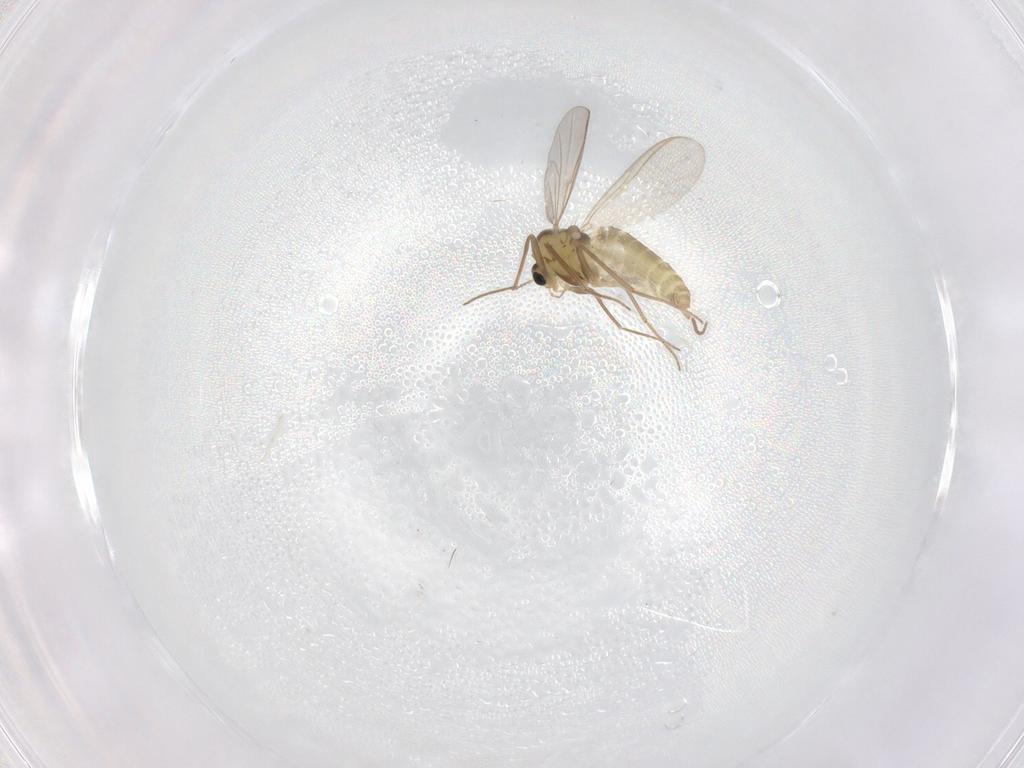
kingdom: Animalia
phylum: Arthropoda
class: Insecta
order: Diptera
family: Chironomidae
